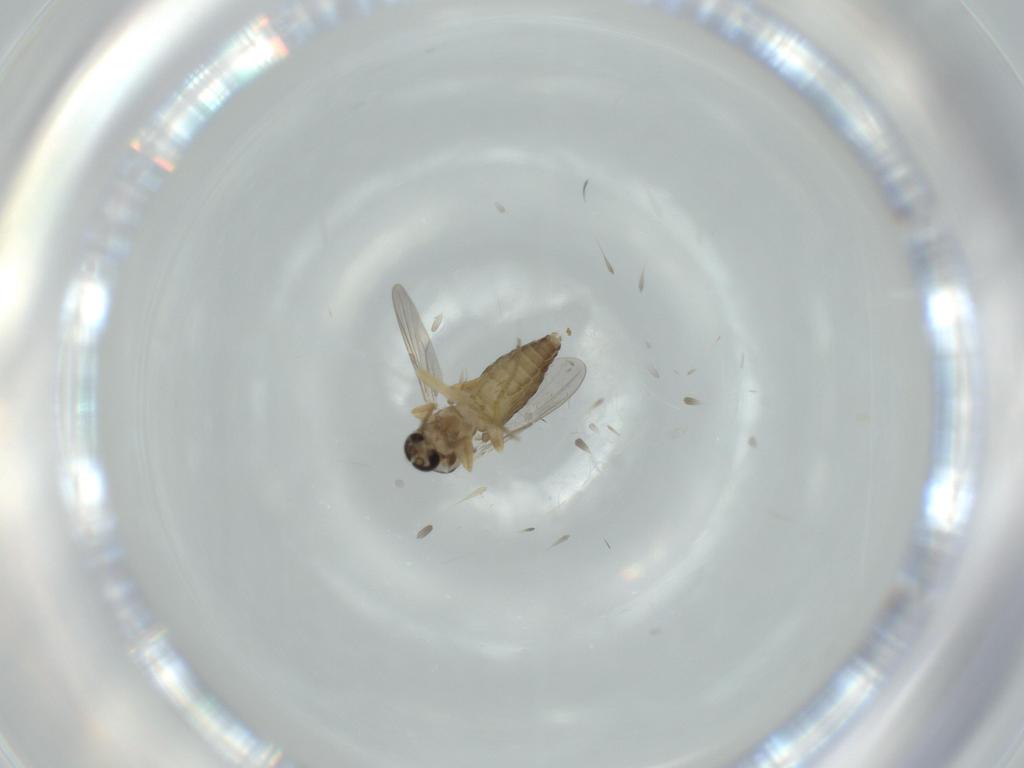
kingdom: Animalia
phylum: Arthropoda
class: Insecta
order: Diptera
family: Ceratopogonidae
